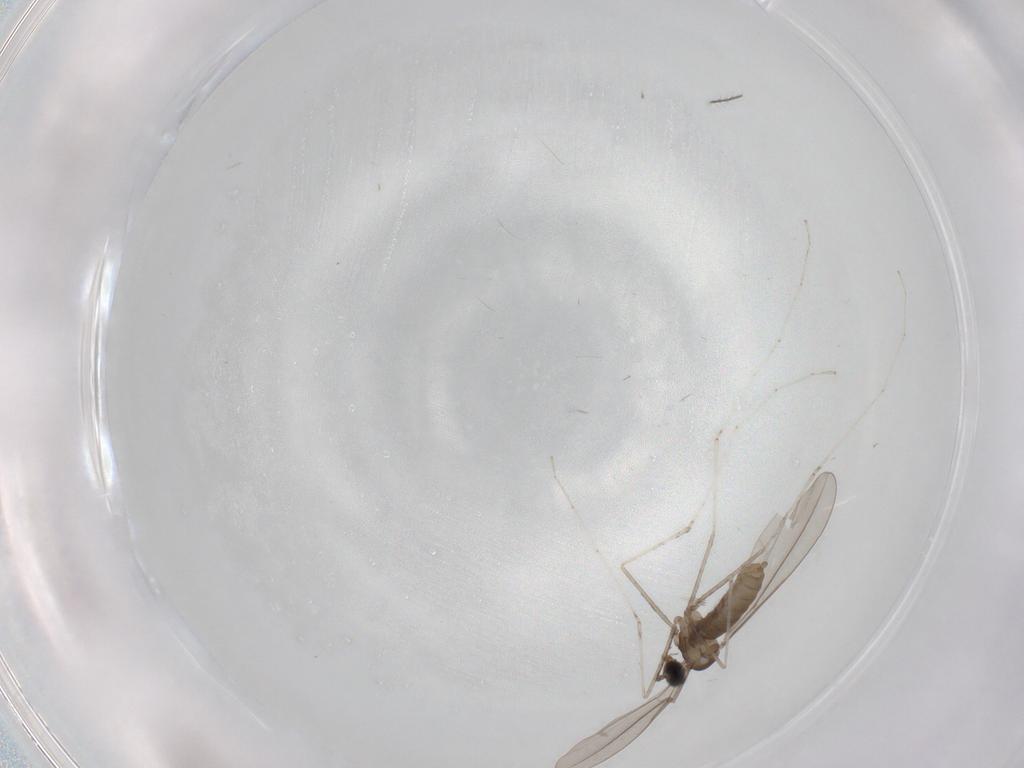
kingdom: Animalia
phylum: Arthropoda
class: Insecta
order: Diptera
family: Cecidomyiidae
